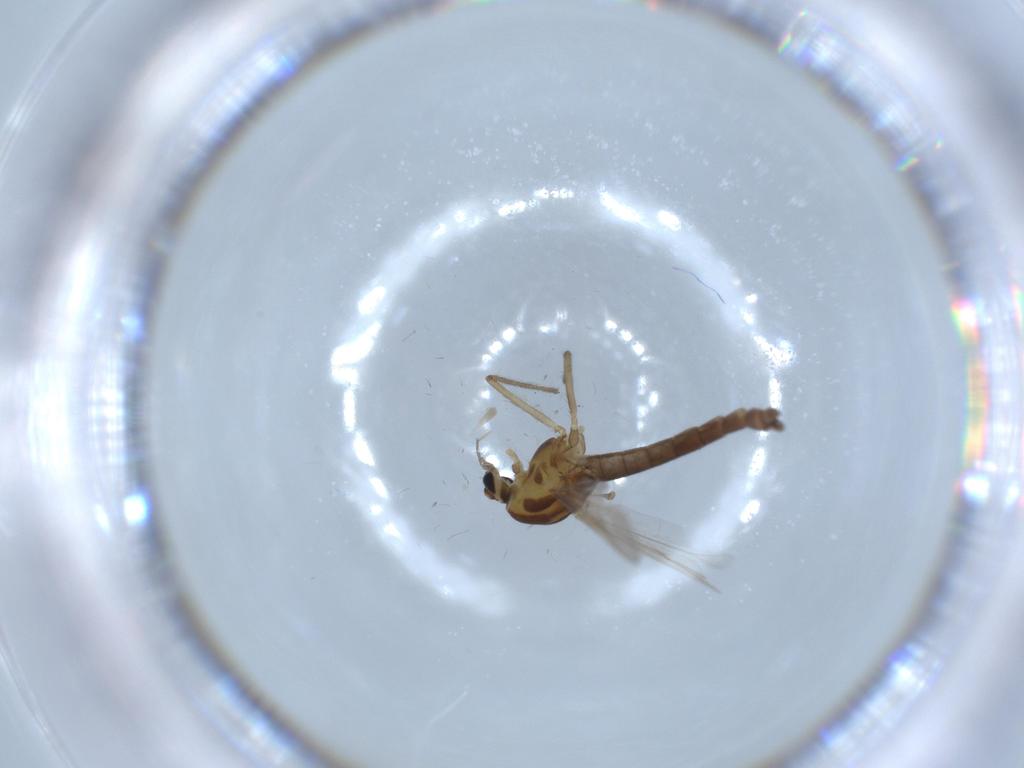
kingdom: Animalia
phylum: Arthropoda
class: Insecta
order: Diptera
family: Chironomidae
